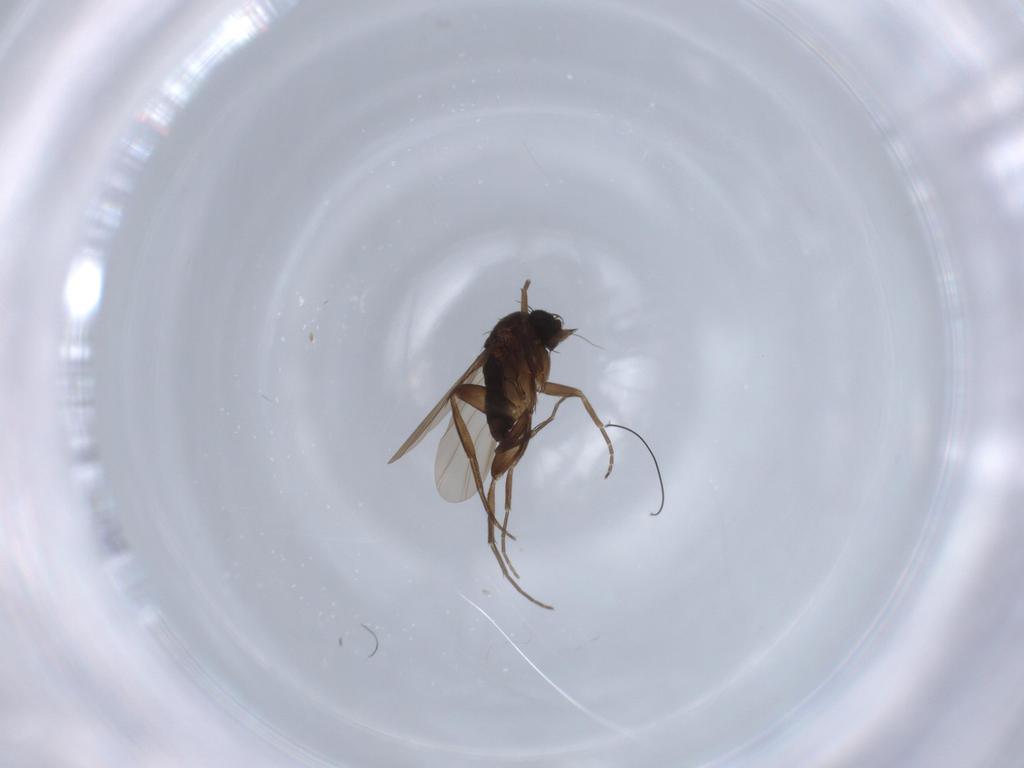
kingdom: Animalia
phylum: Arthropoda
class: Insecta
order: Diptera
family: Phoridae
